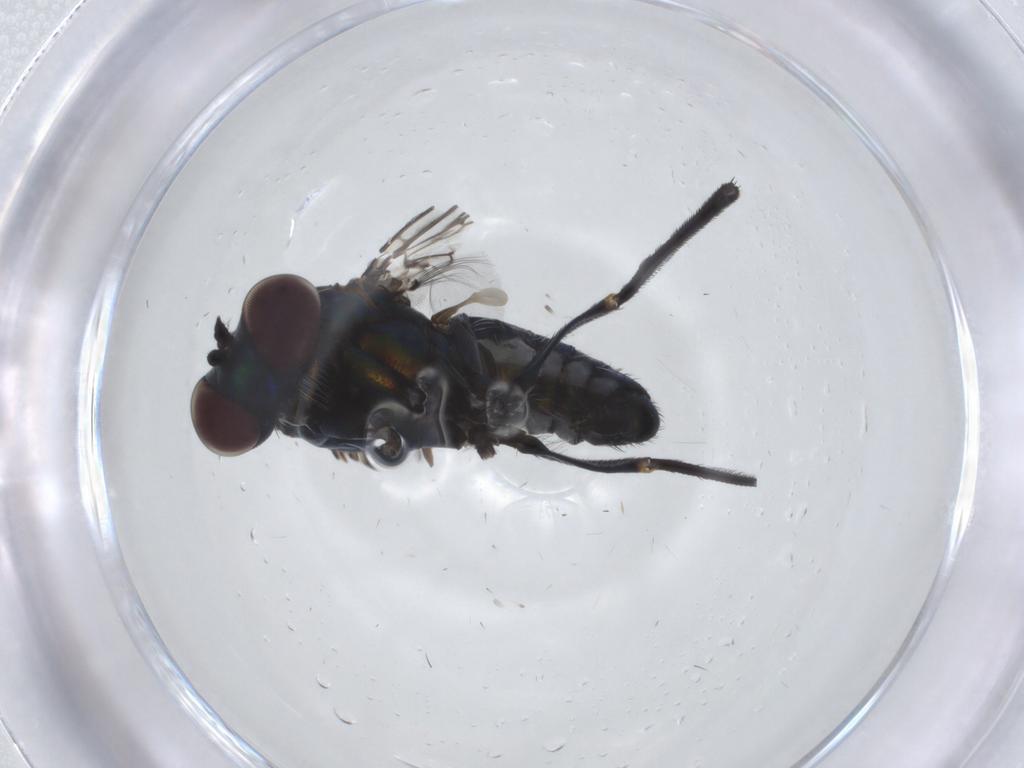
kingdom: Animalia
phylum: Arthropoda
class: Insecta
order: Diptera
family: Dolichopodidae
